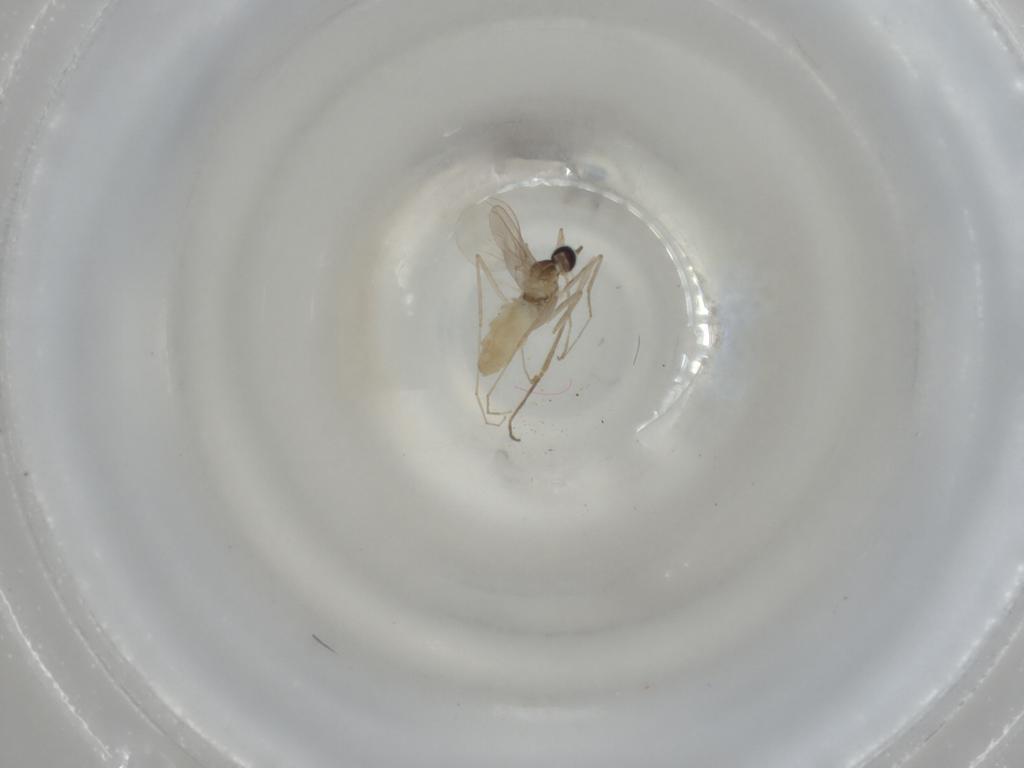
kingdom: Animalia
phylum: Arthropoda
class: Insecta
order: Diptera
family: Cecidomyiidae
